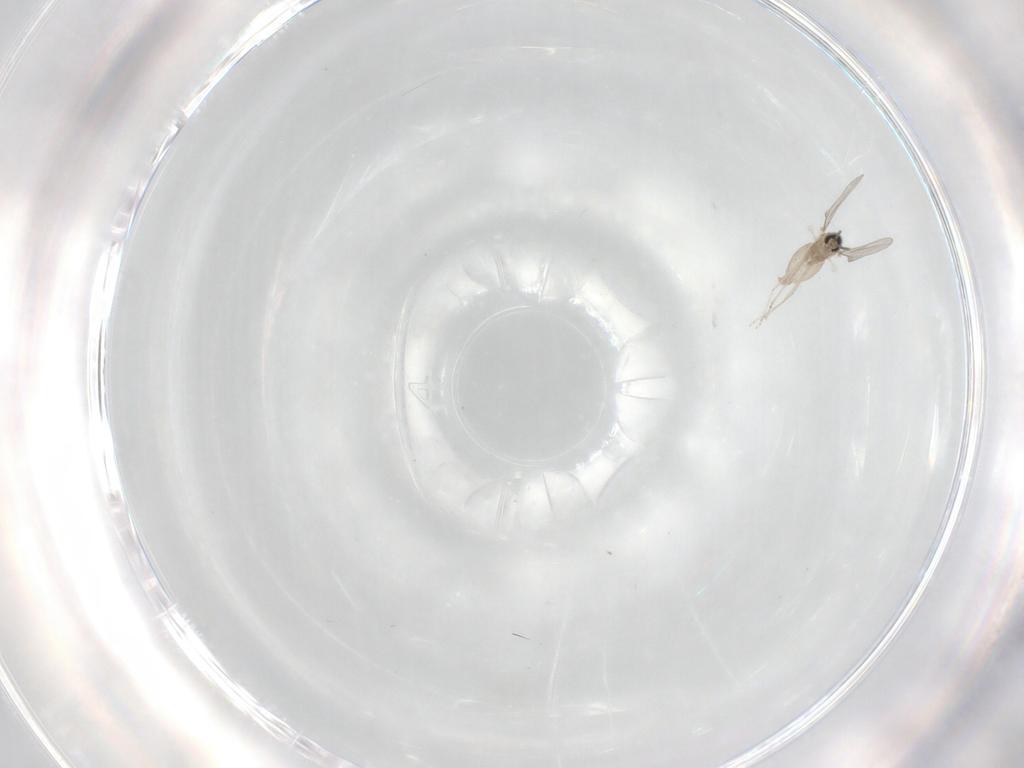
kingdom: Animalia
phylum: Arthropoda
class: Insecta
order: Diptera
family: Cecidomyiidae
